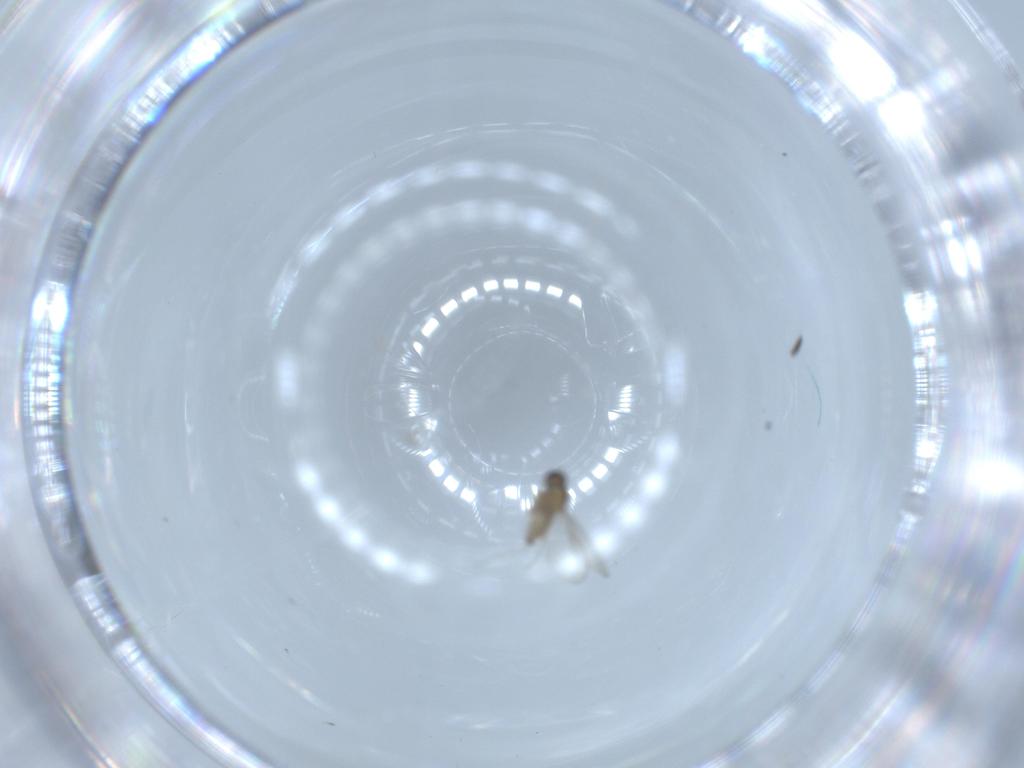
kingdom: Animalia
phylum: Arthropoda
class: Insecta
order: Diptera
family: Cecidomyiidae
